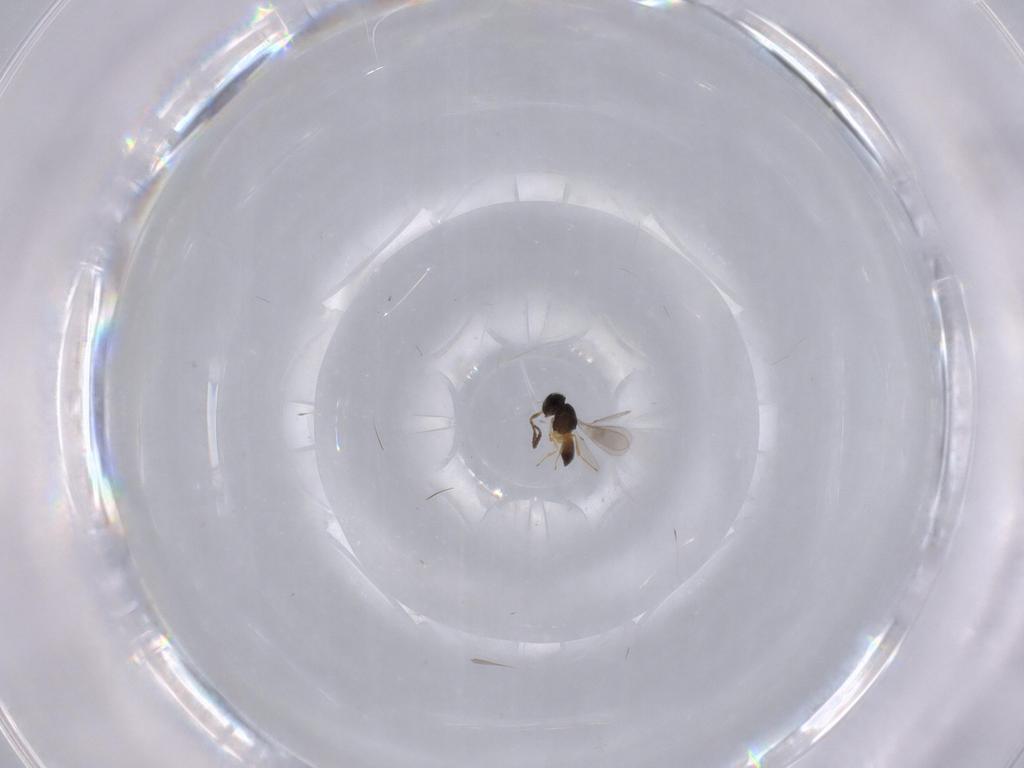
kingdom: Animalia
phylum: Arthropoda
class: Insecta
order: Hymenoptera
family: Scelionidae
